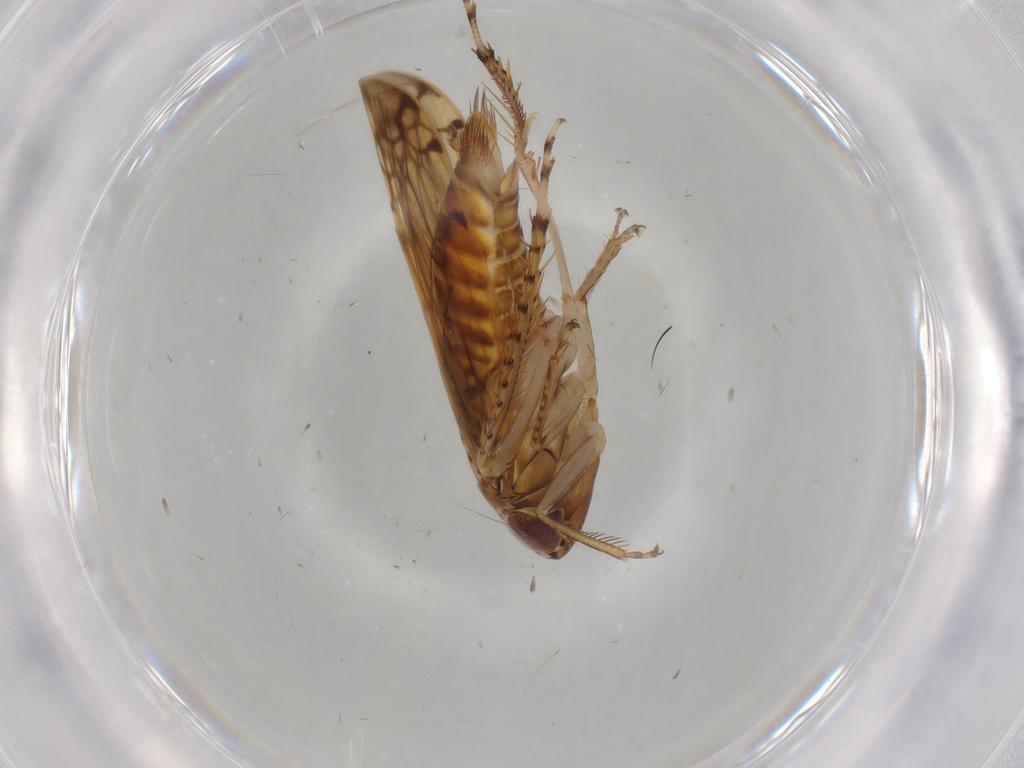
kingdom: Animalia
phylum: Arthropoda
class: Insecta
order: Hemiptera
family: Cicadellidae
